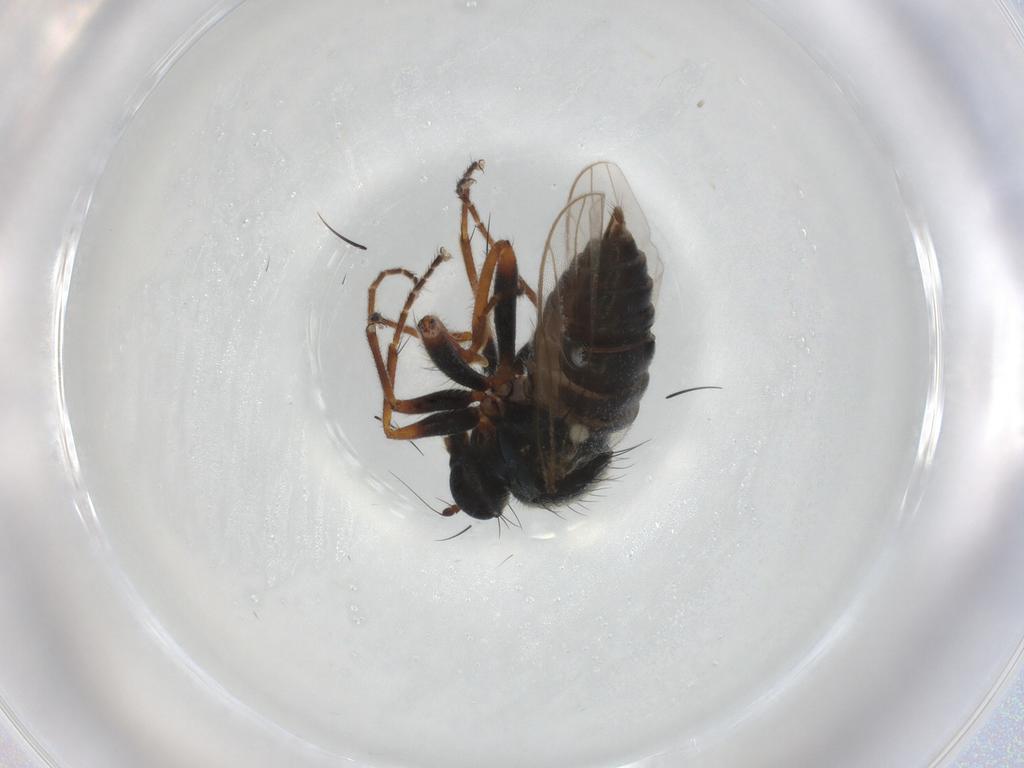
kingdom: Animalia
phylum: Arthropoda
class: Insecta
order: Diptera
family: Hybotidae
